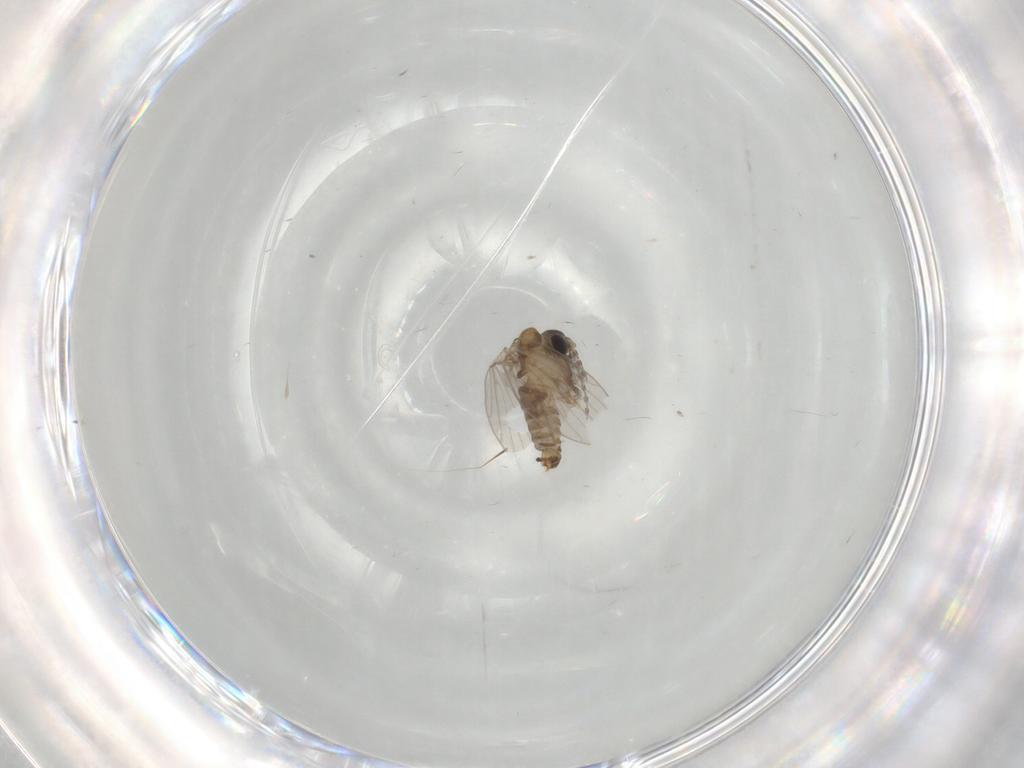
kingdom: Animalia
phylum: Arthropoda
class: Insecta
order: Diptera
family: Psychodidae
